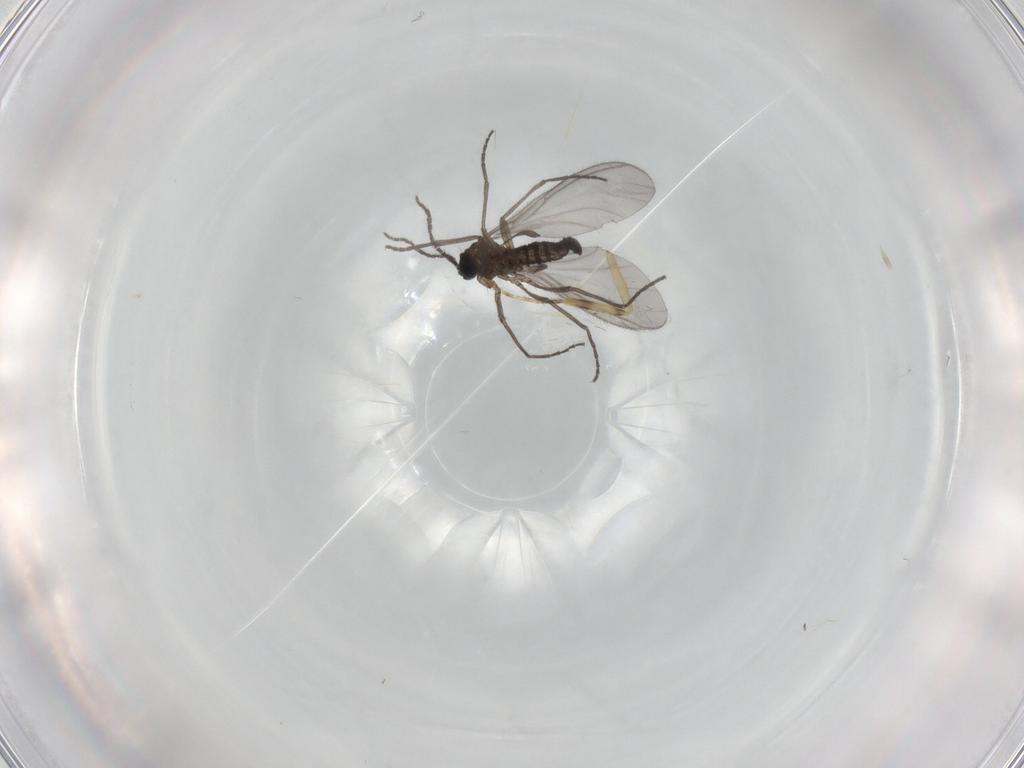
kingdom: Animalia
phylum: Arthropoda
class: Insecta
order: Diptera
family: Sciaridae
